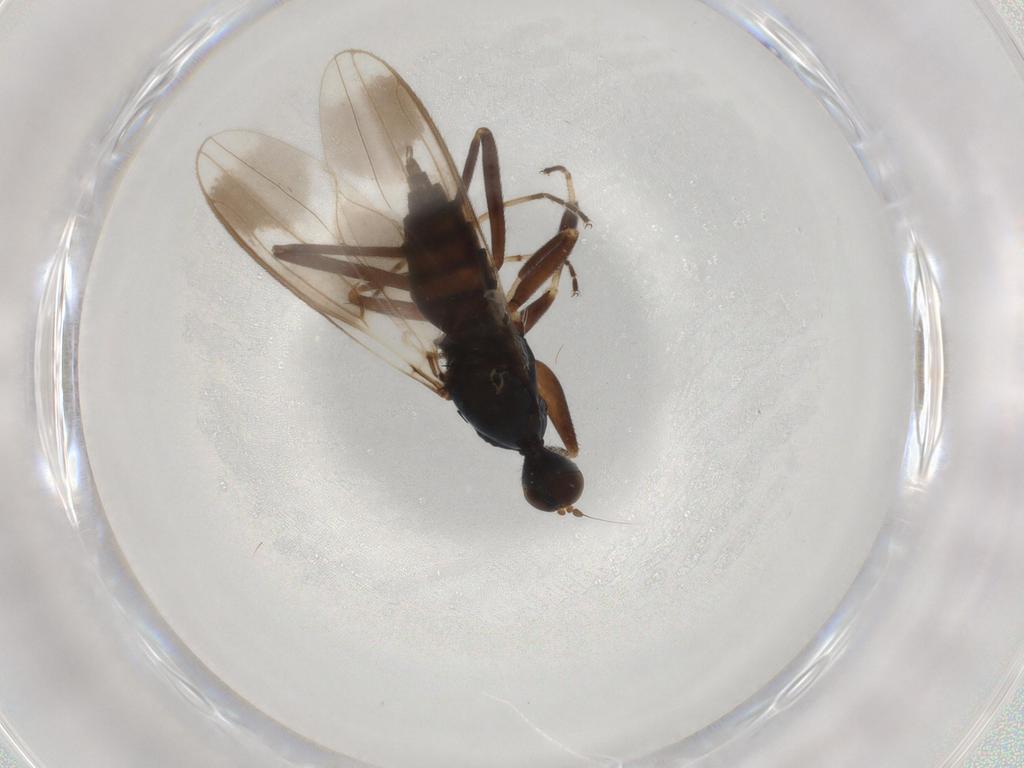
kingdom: Animalia
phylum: Arthropoda
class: Insecta
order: Diptera
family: Hybotidae
